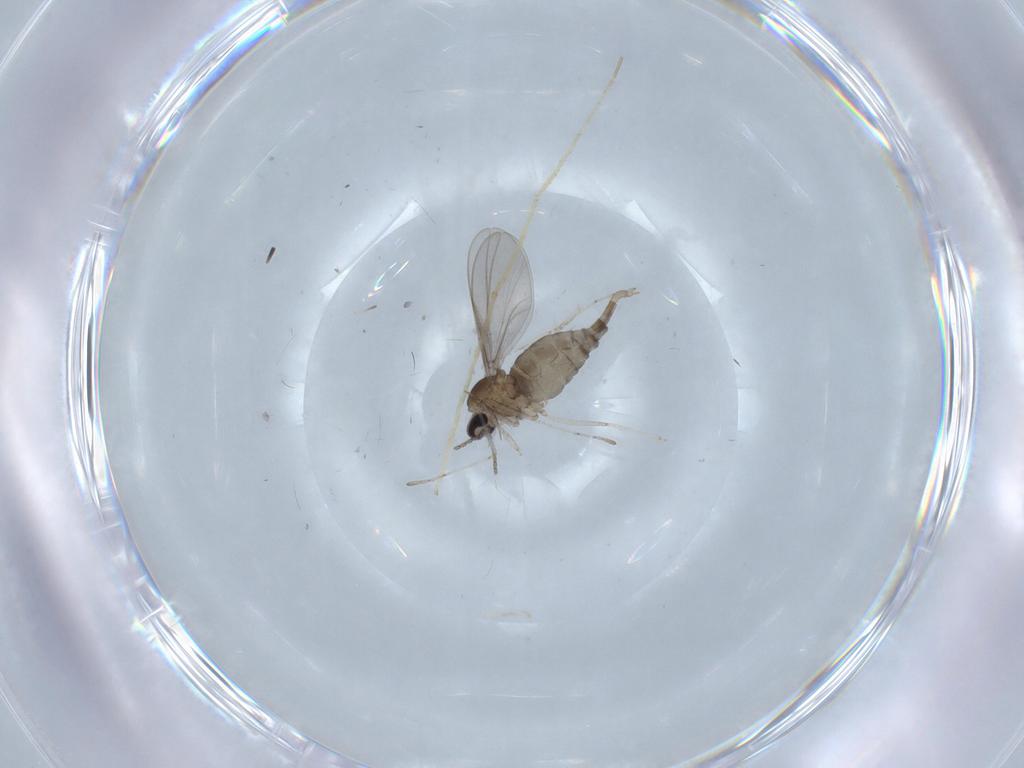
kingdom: Animalia
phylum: Arthropoda
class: Insecta
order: Diptera
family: Cecidomyiidae
